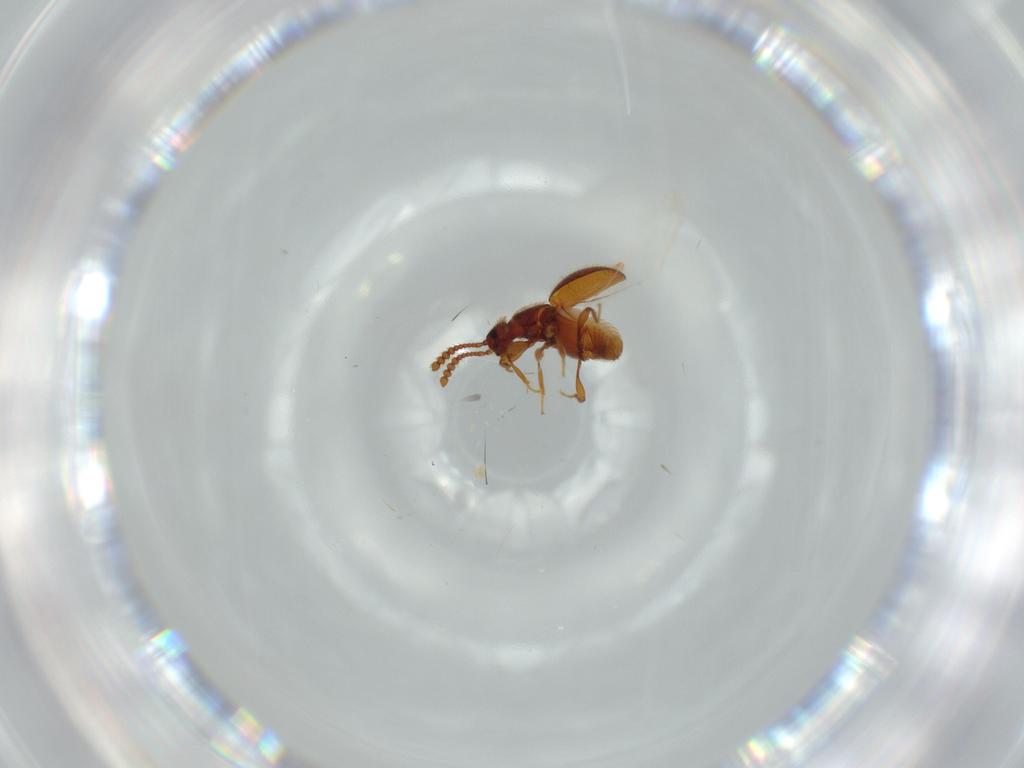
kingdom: Animalia
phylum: Arthropoda
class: Insecta
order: Coleoptera
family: Chrysomelidae
